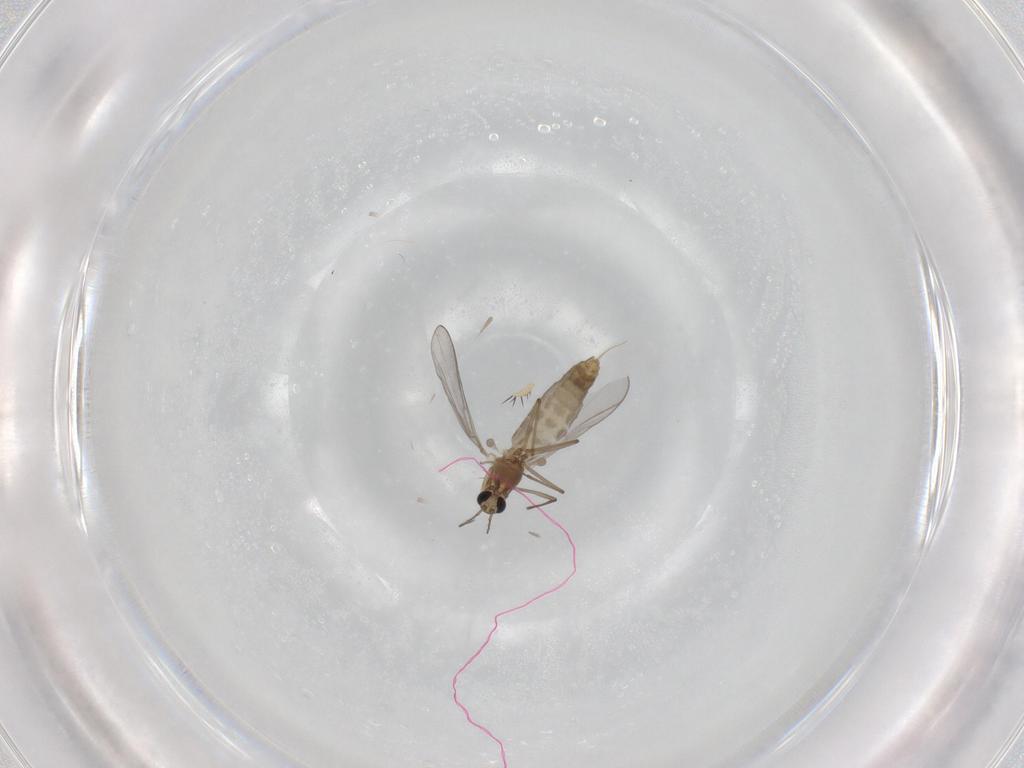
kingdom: Animalia
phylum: Arthropoda
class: Insecta
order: Diptera
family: Chironomidae
